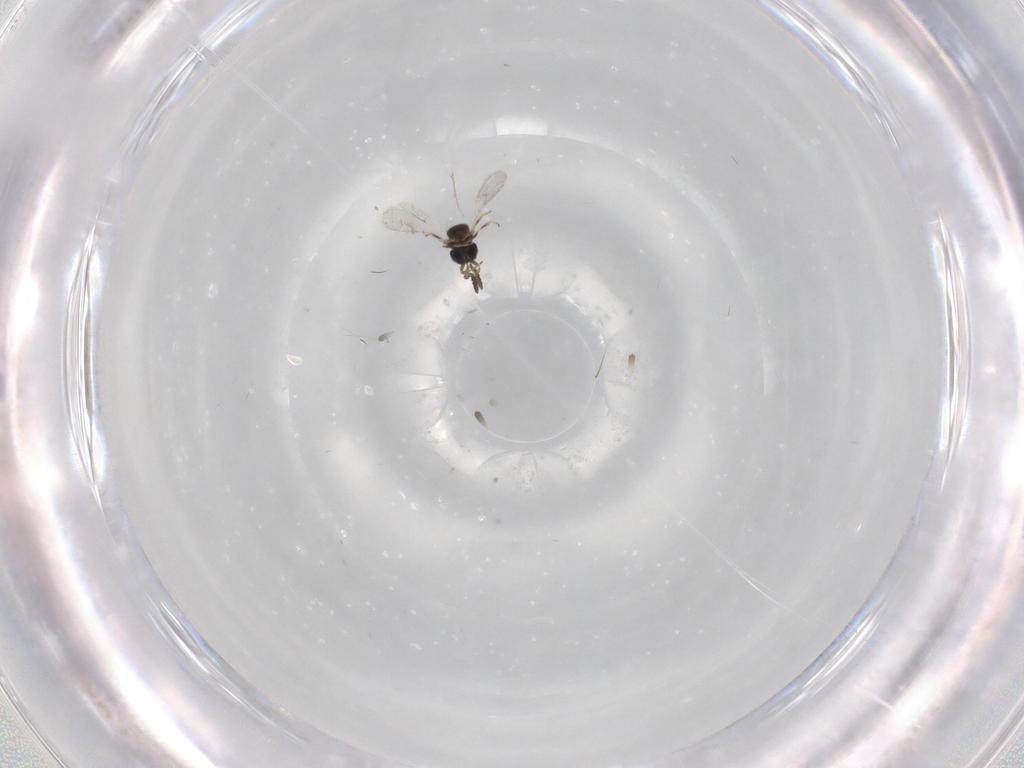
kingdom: Animalia
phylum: Arthropoda
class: Insecta
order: Hymenoptera
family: Scelionidae
